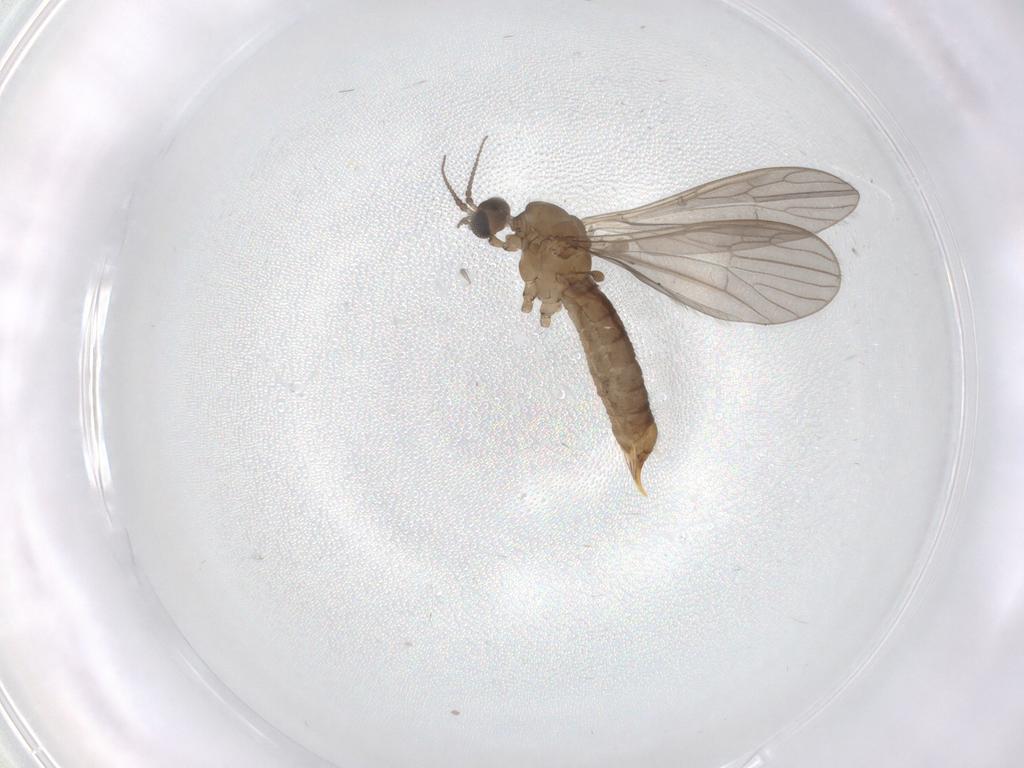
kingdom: Animalia
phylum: Arthropoda
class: Insecta
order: Diptera
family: Limoniidae
